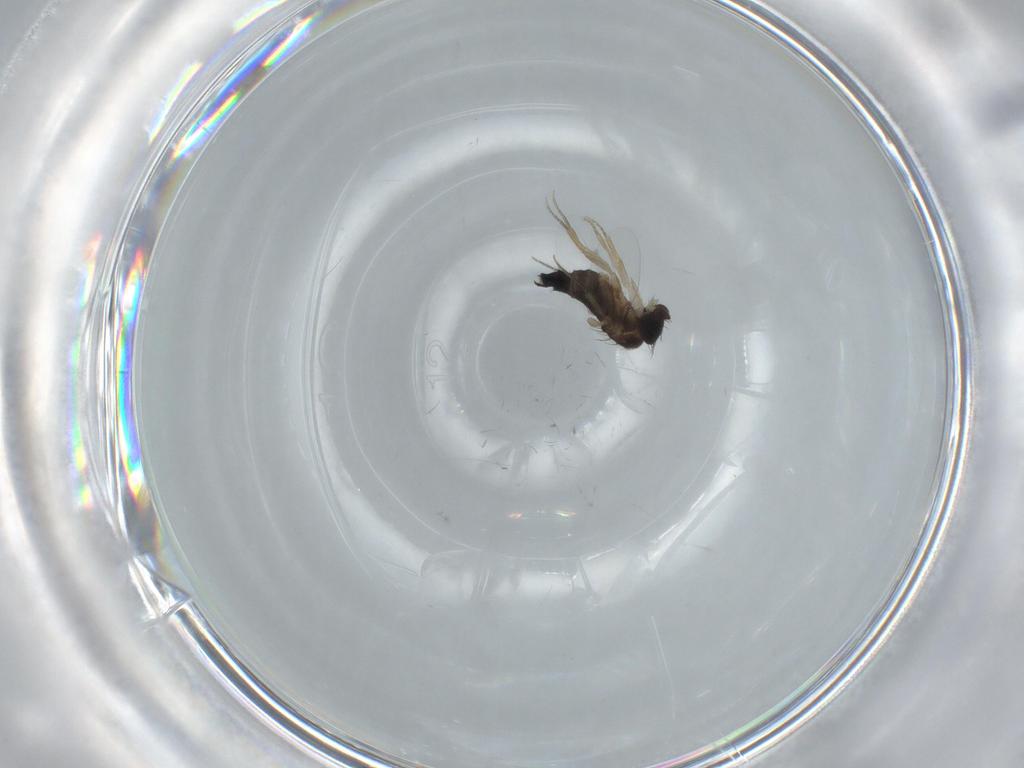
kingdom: Animalia
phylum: Arthropoda
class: Insecta
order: Diptera
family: Phoridae
